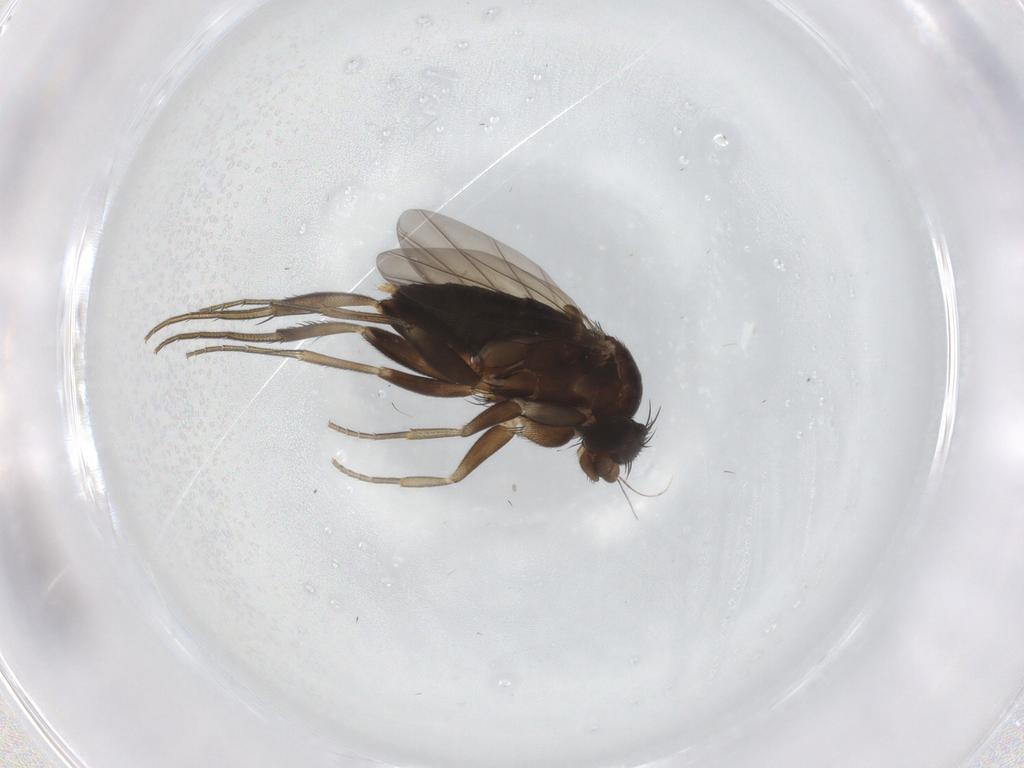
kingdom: Animalia
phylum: Arthropoda
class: Insecta
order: Diptera
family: Phoridae
